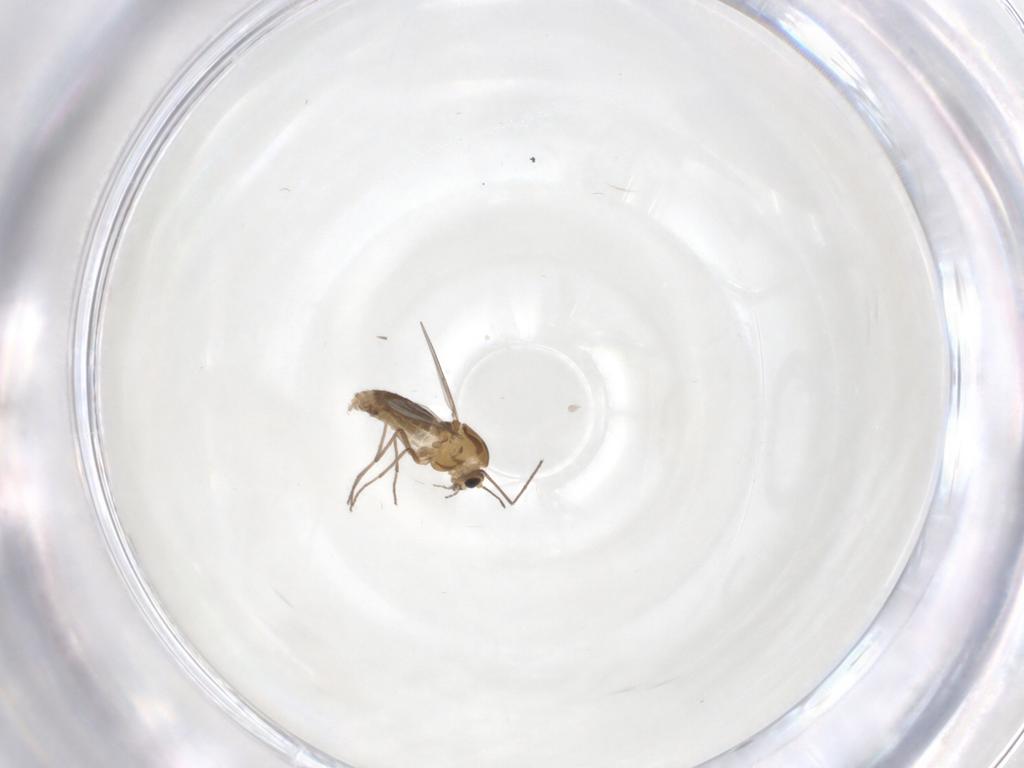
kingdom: Animalia
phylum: Arthropoda
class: Insecta
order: Diptera
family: Chironomidae
